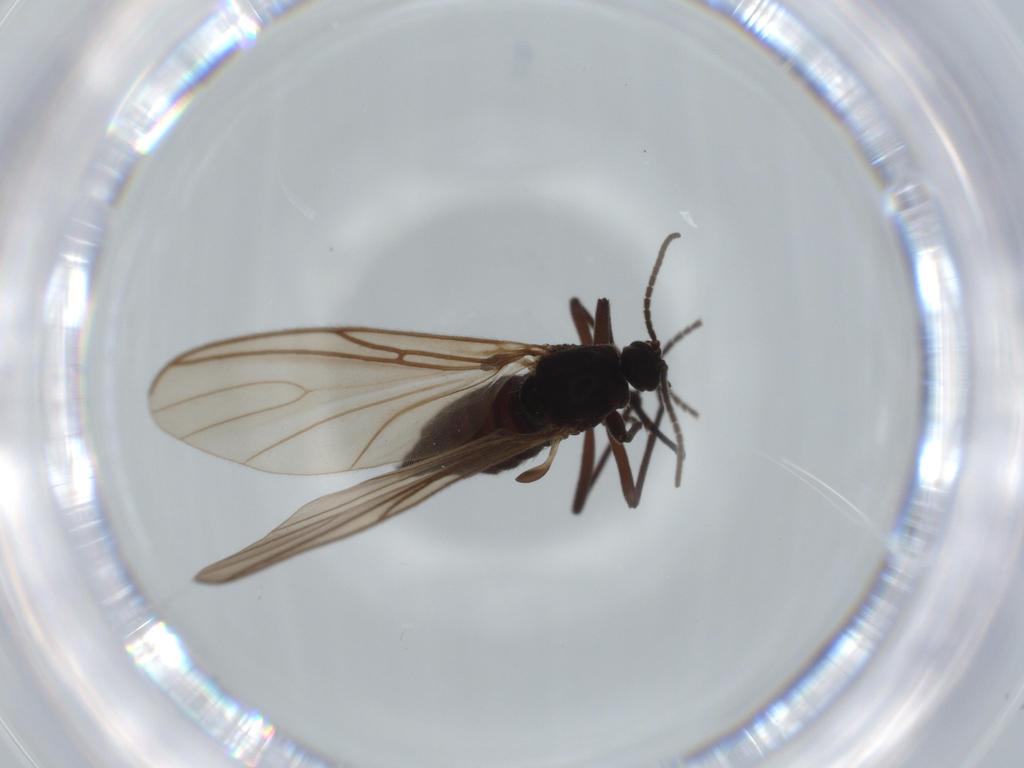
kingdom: Animalia
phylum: Arthropoda
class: Insecta
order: Diptera
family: Sciaridae
